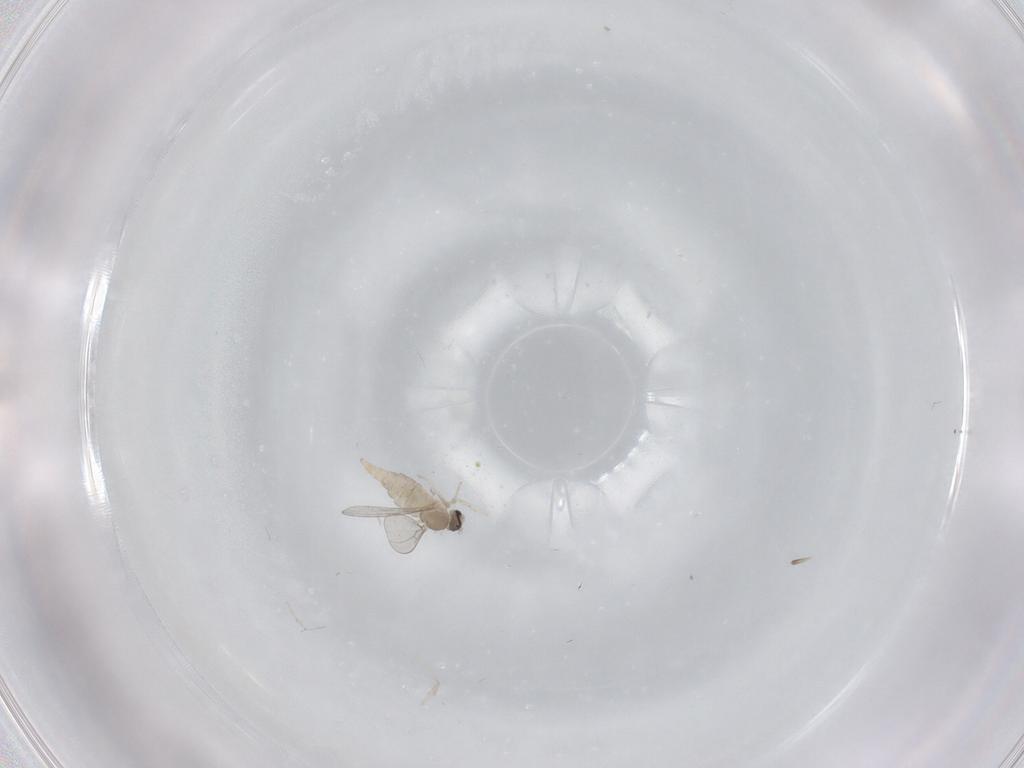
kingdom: Animalia
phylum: Arthropoda
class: Insecta
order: Diptera
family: Cecidomyiidae
